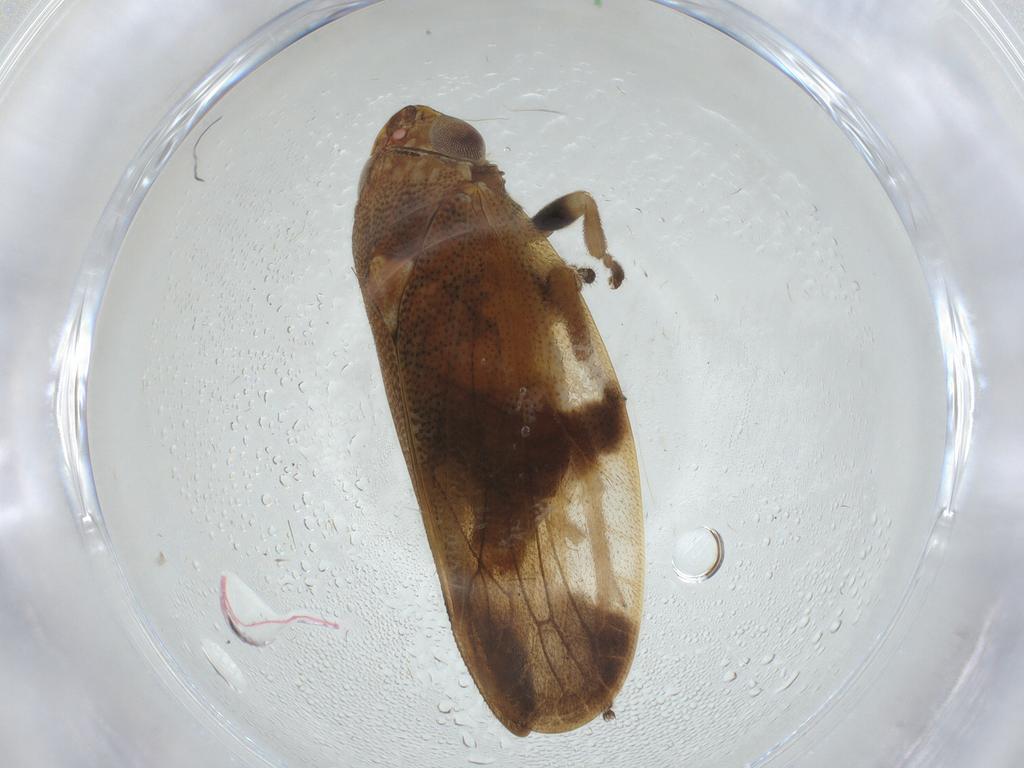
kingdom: Animalia
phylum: Arthropoda
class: Insecta
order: Hemiptera
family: Aphrophoridae
